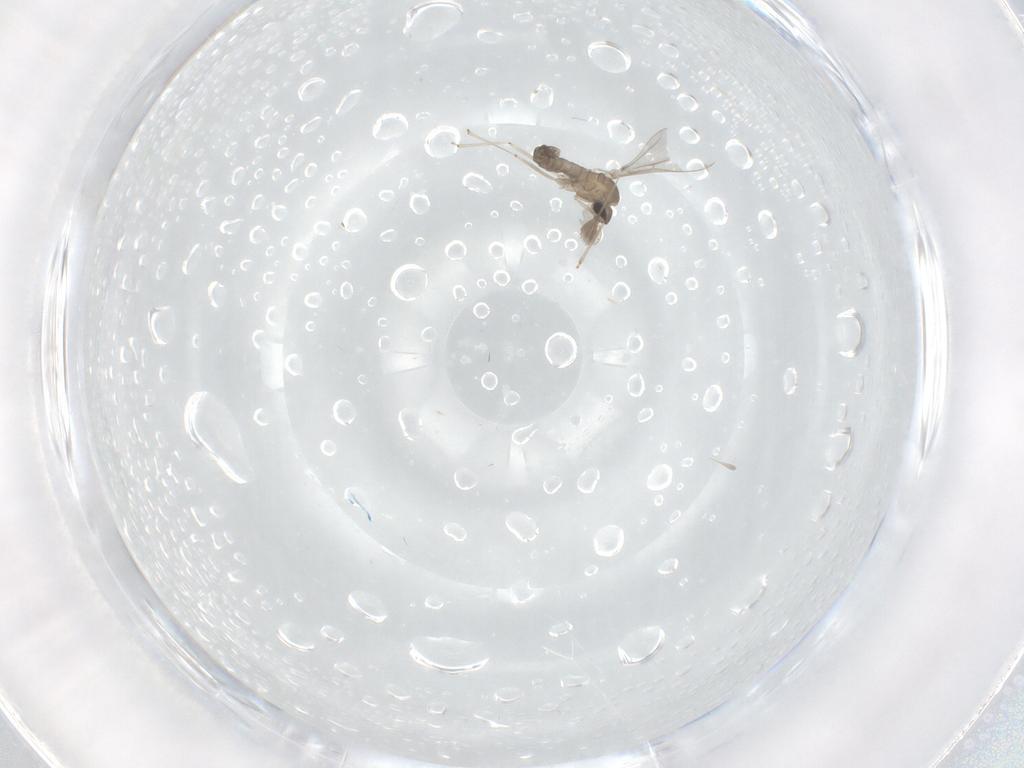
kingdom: Animalia
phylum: Arthropoda
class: Insecta
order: Diptera
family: Cecidomyiidae
